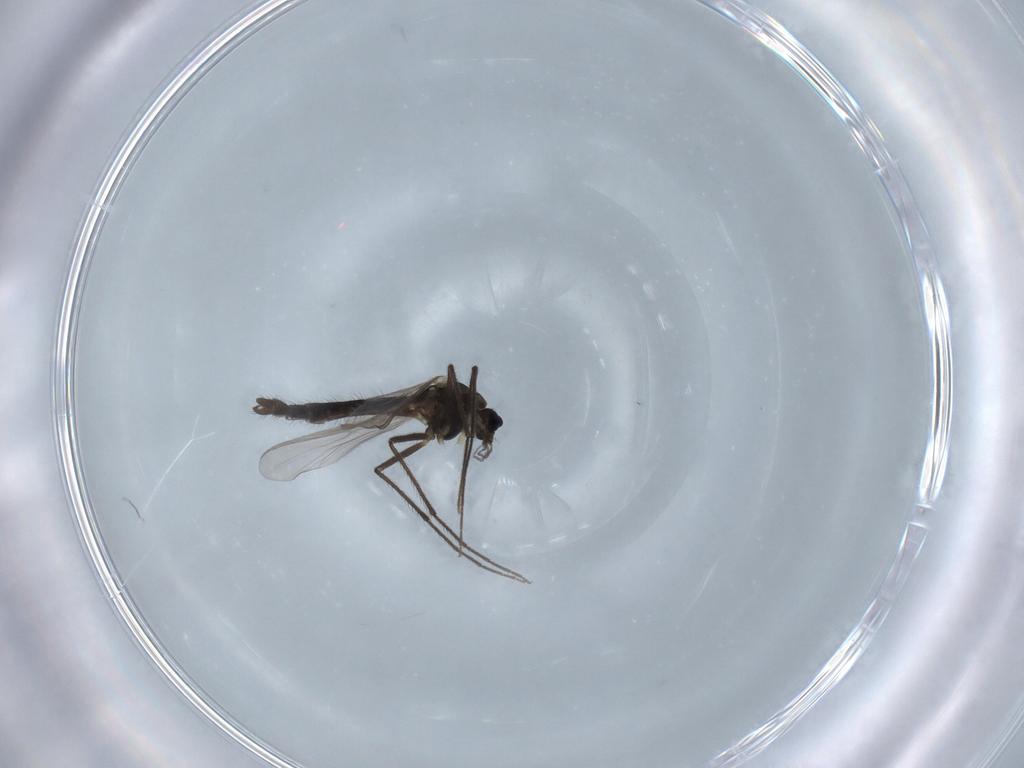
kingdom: Animalia
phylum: Arthropoda
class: Insecta
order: Diptera
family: Chironomidae
